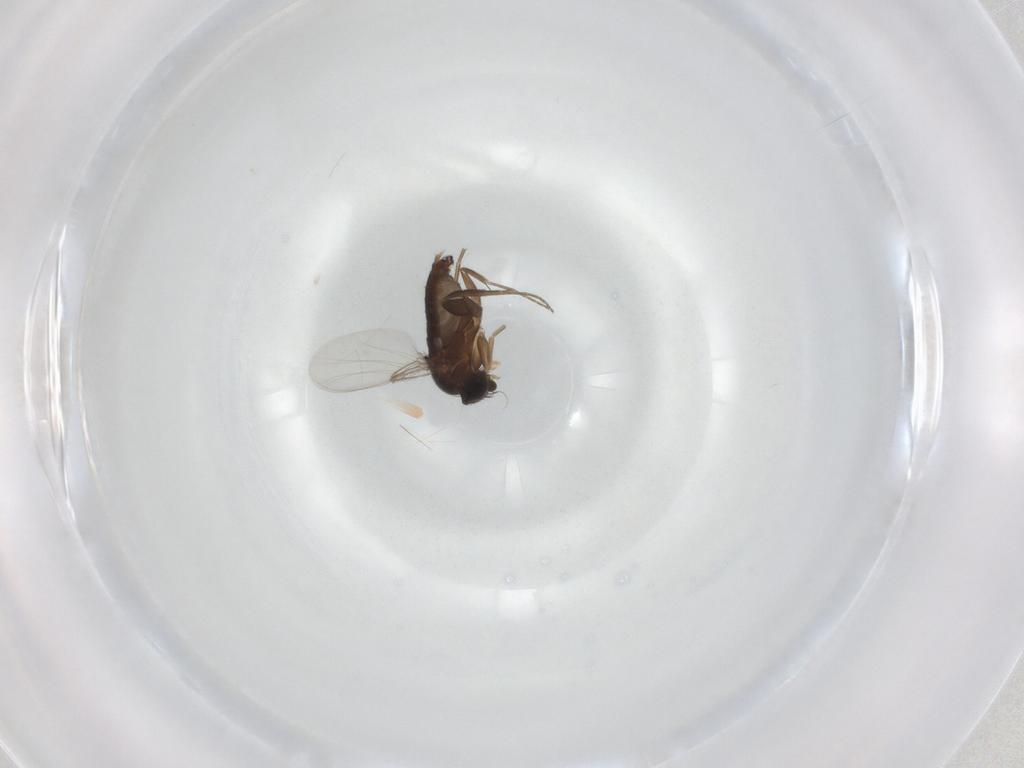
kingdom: Animalia
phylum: Arthropoda
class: Insecta
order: Diptera
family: Phoridae
